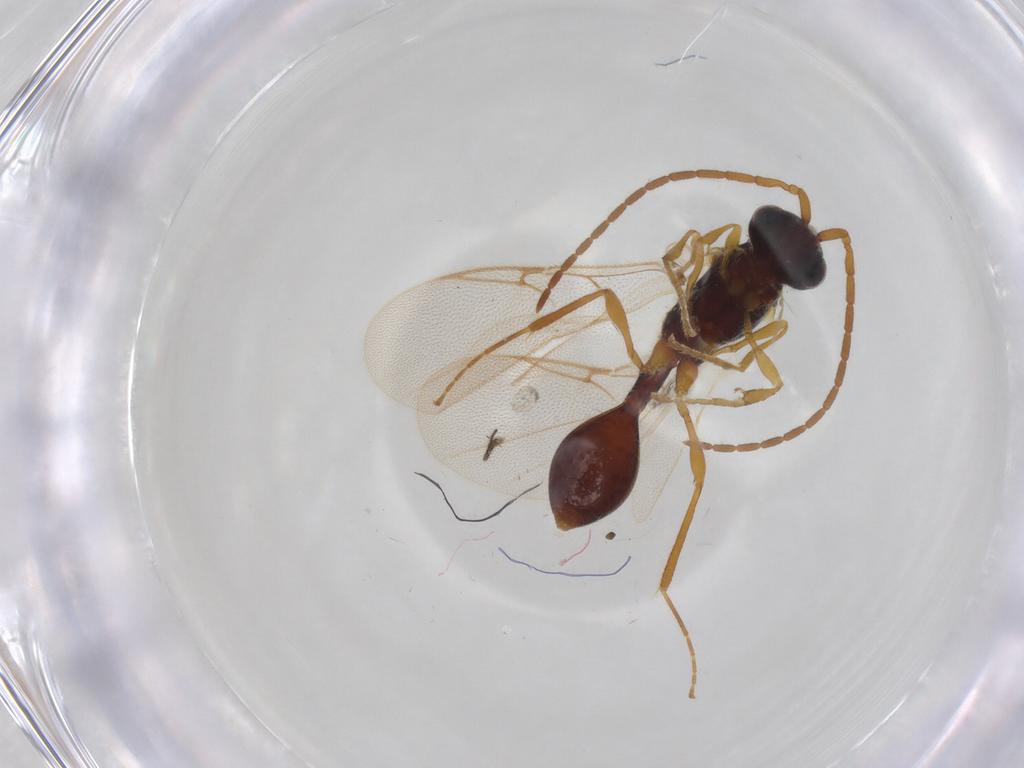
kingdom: Animalia
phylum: Arthropoda
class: Insecta
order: Hymenoptera
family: Diapriidae
